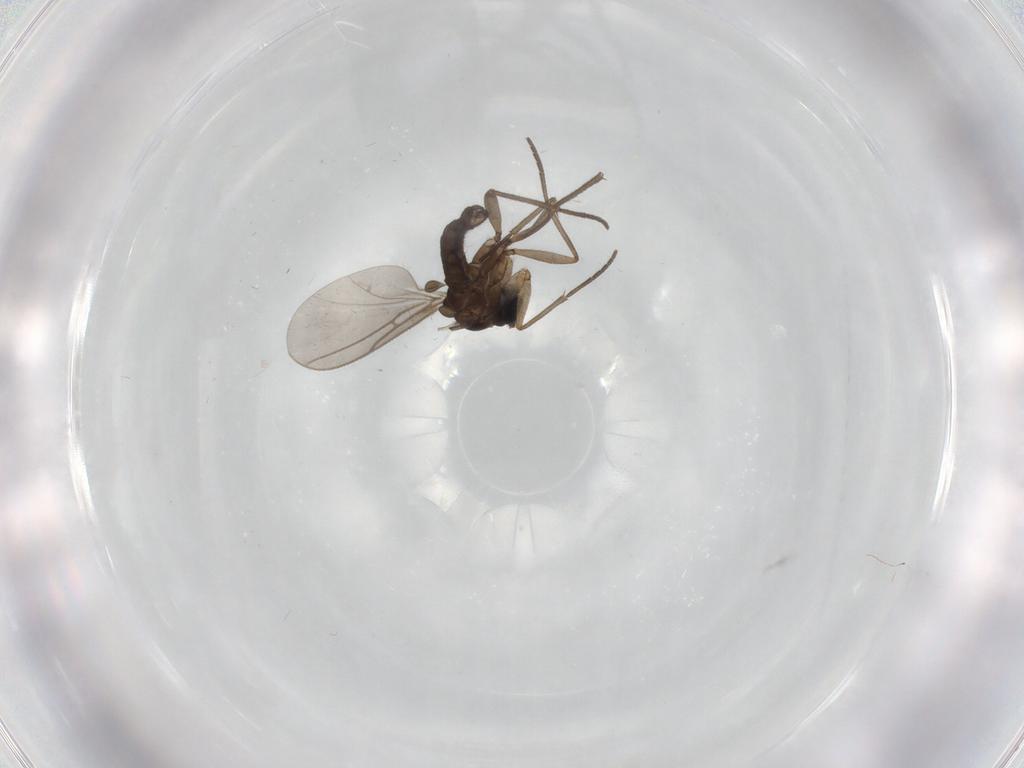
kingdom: Animalia
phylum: Arthropoda
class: Insecta
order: Diptera
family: Sciaridae
